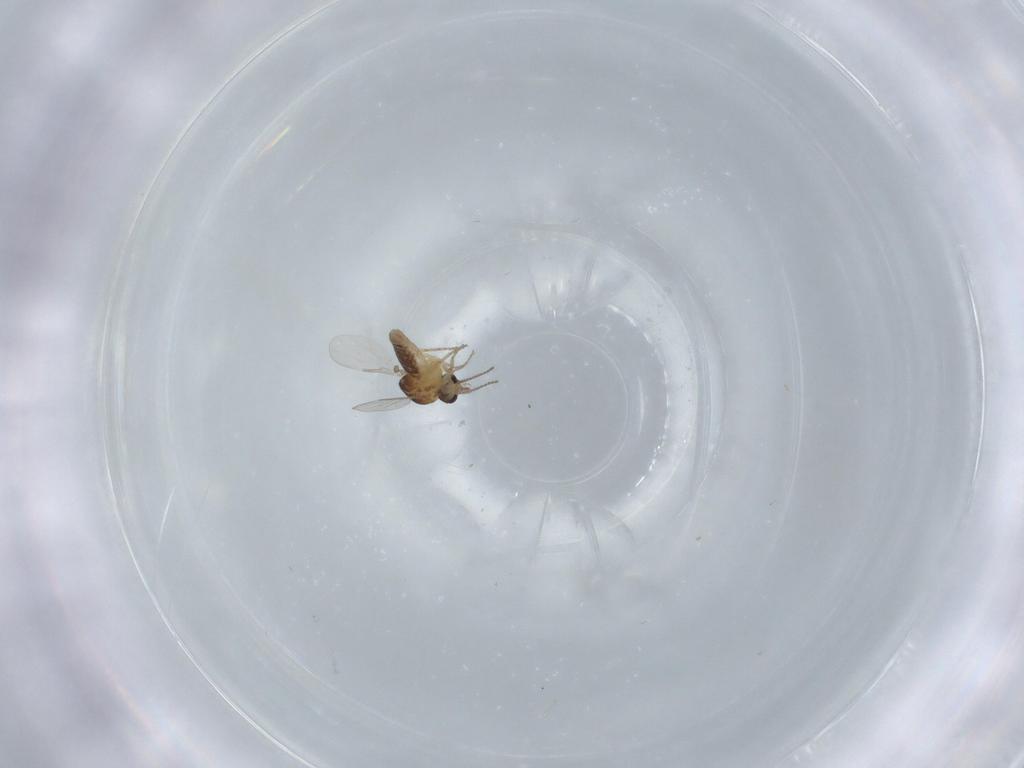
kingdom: Animalia
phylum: Arthropoda
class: Insecta
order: Diptera
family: Ceratopogonidae
